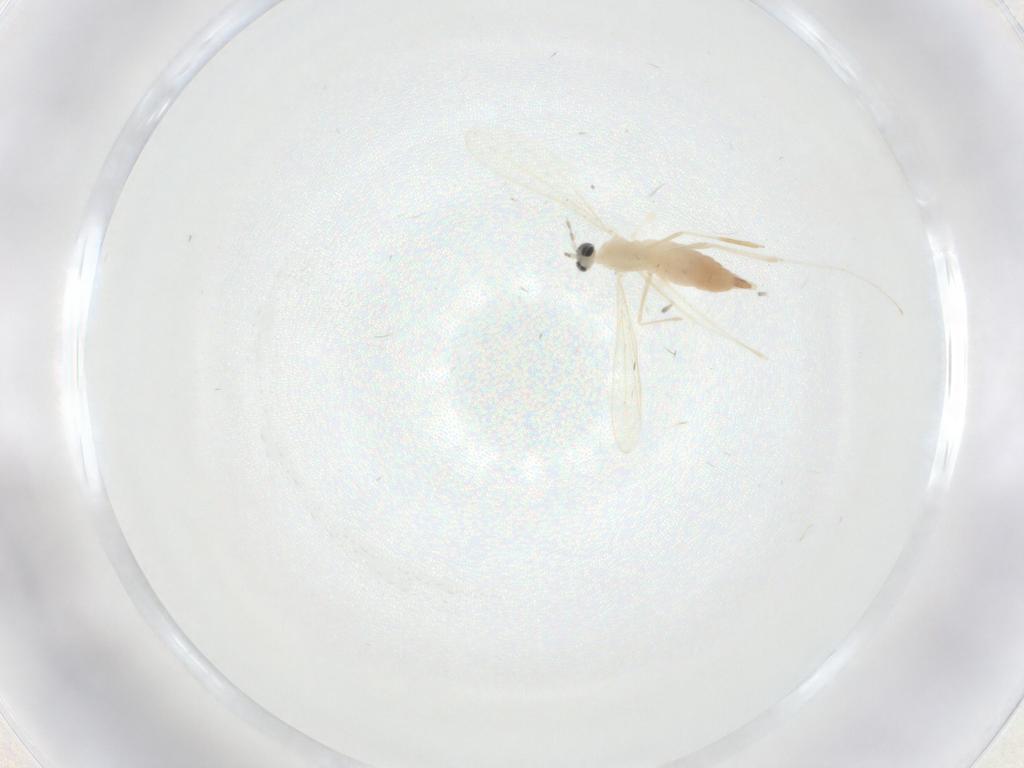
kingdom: Animalia
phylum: Arthropoda
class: Insecta
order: Diptera
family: Cecidomyiidae
